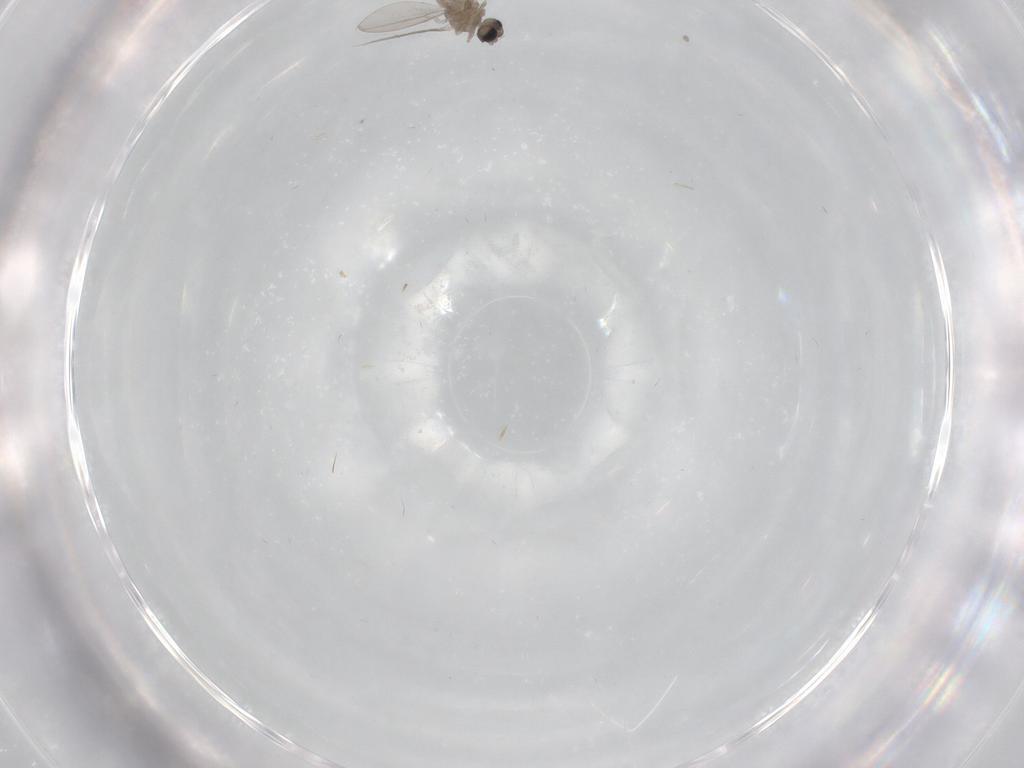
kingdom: Animalia
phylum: Arthropoda
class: Insecta
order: Diptera
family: Cecidomyiidae
